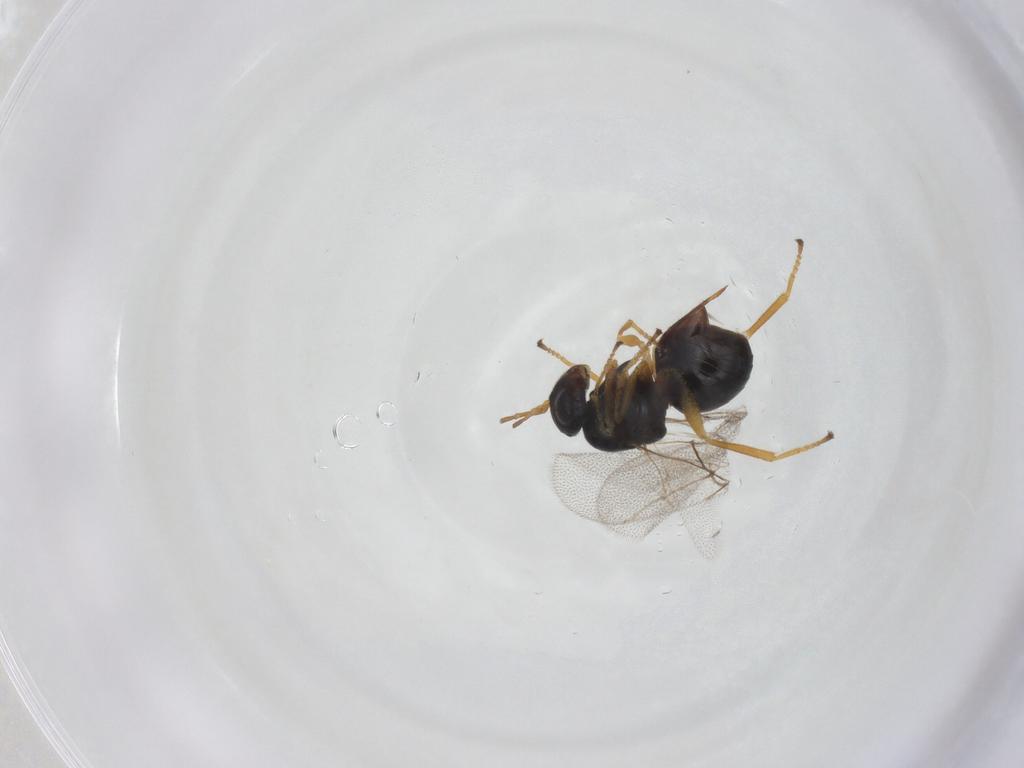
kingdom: Animalia
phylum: Arthropoda
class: Insecta
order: Hymenoptera
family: Cynipidae
